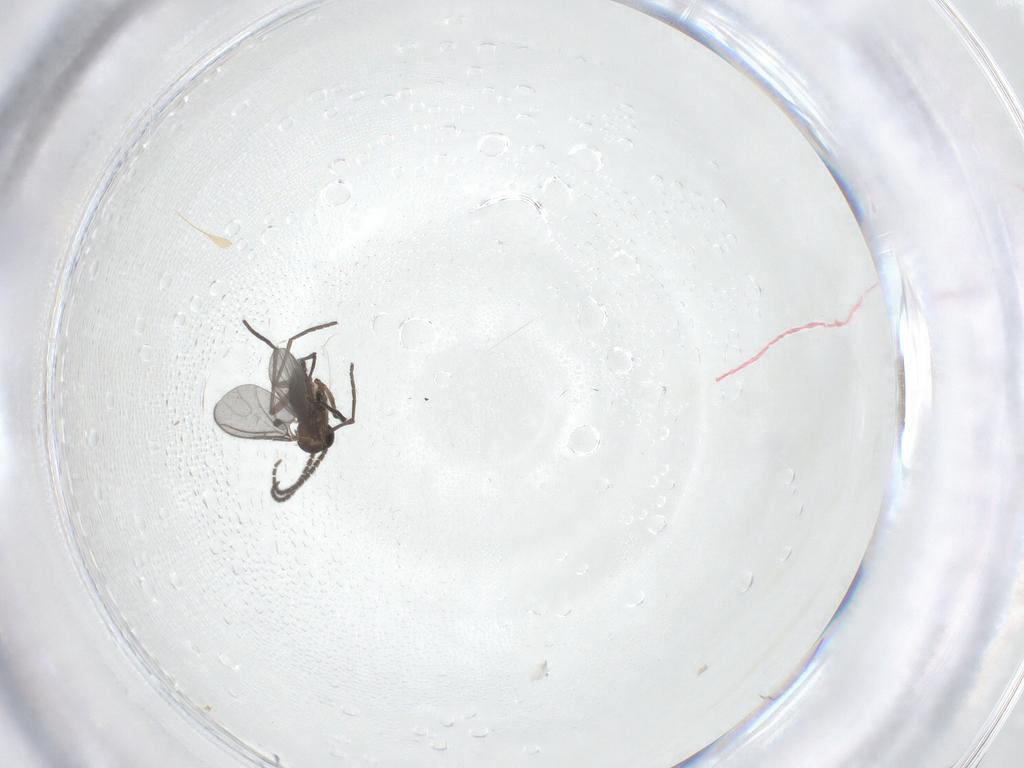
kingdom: Animalia
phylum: Arthropoda
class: Insecta
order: Diptera
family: Sciaridae
